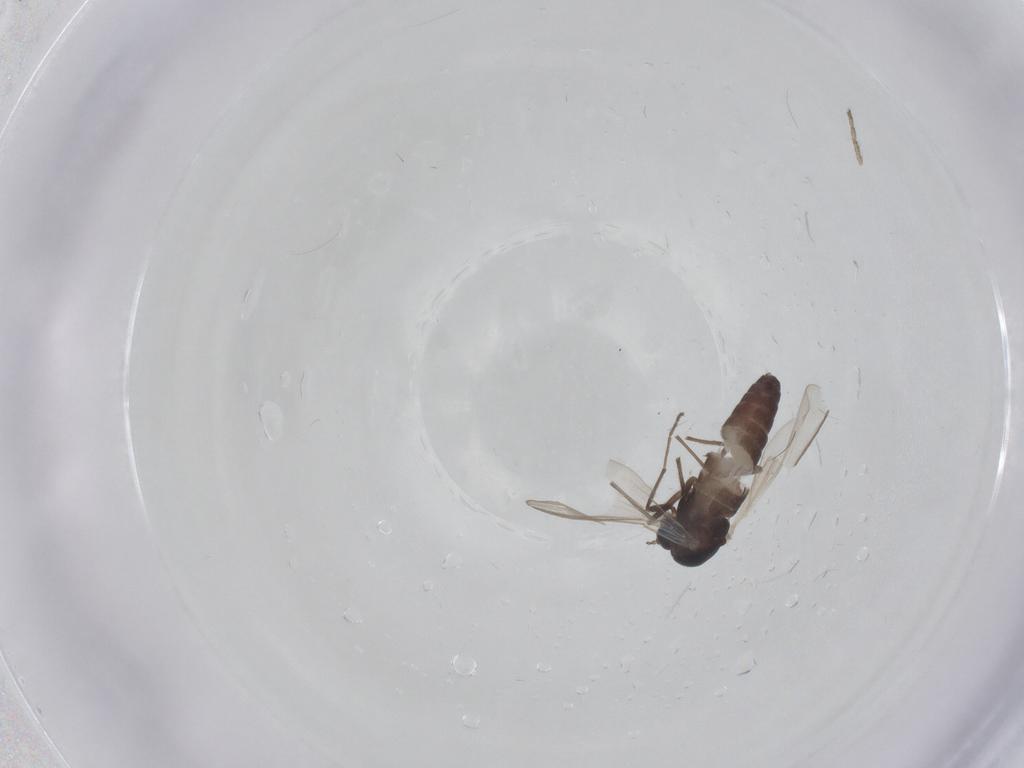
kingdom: Animalia
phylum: Arthropoda
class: Insecta
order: Diptera
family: Chironomidae
